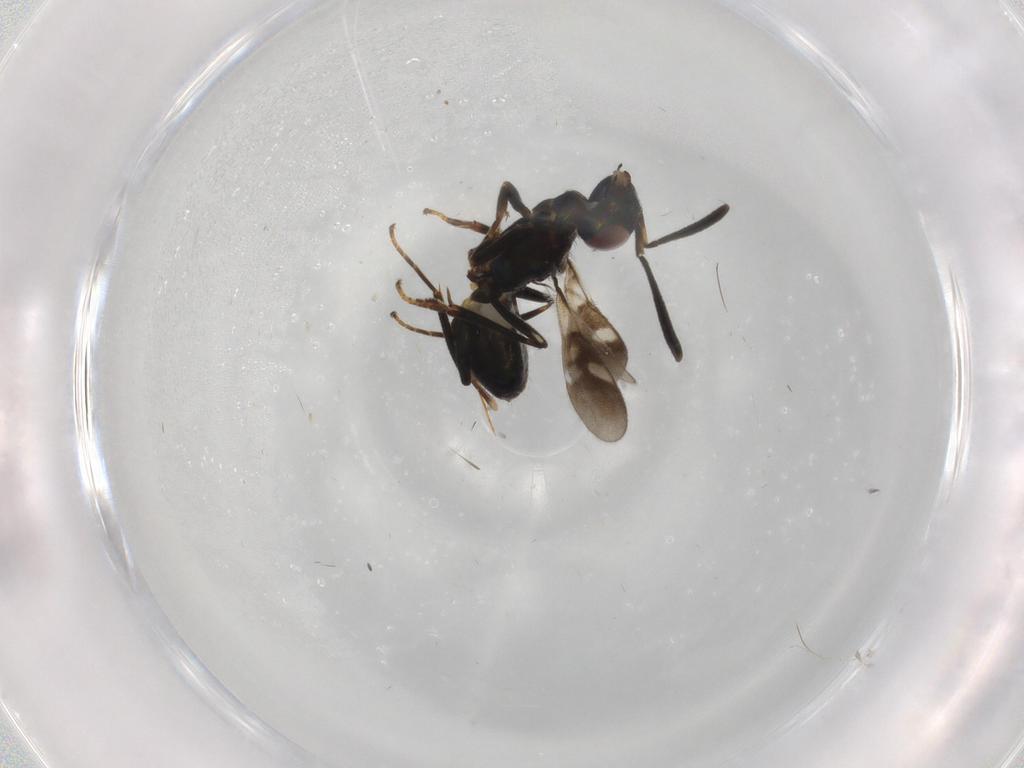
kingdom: Animalia
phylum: Arthropoda
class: Insecta
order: Hymenoptera
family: Eupelmidae
